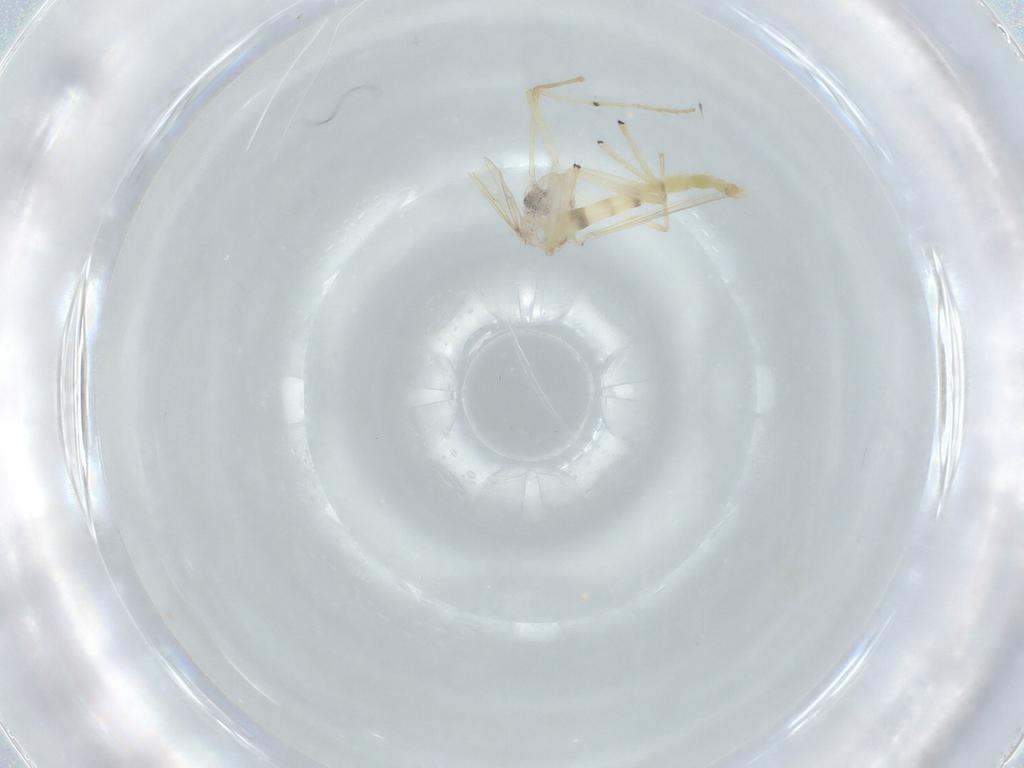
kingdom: Animalia
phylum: Arthropoda
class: Insecta
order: Diptera
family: Chironomidae
